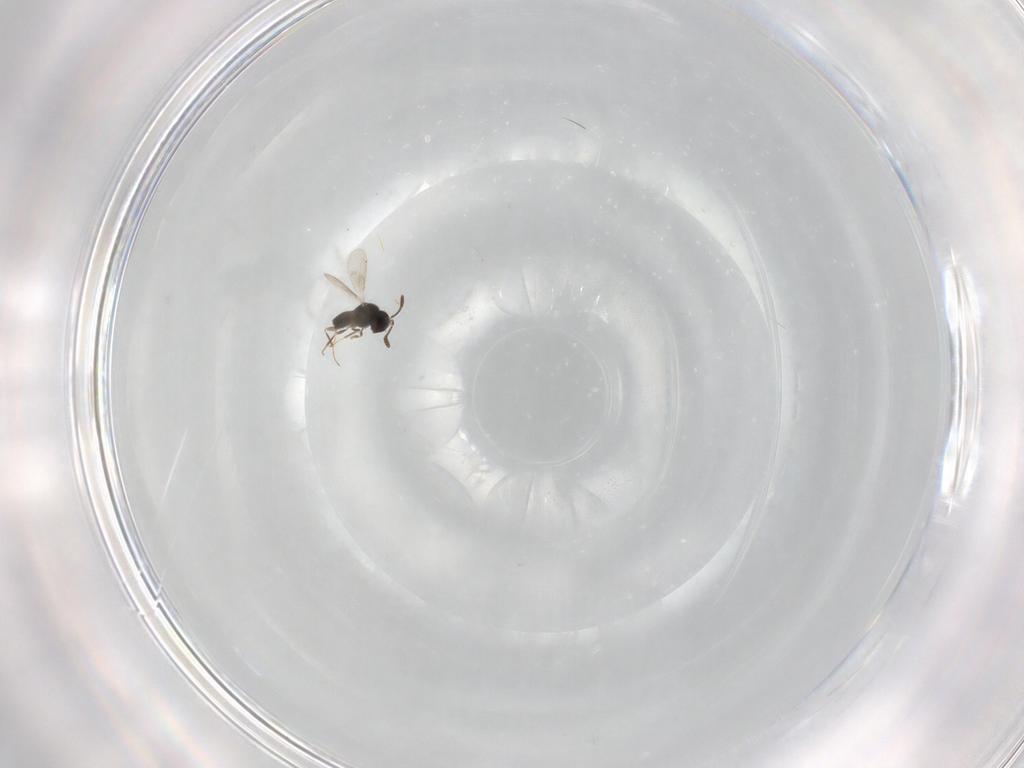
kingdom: Animalia
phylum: Arthropoda
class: Insecta
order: Hymenoptera
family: Scelionidae
